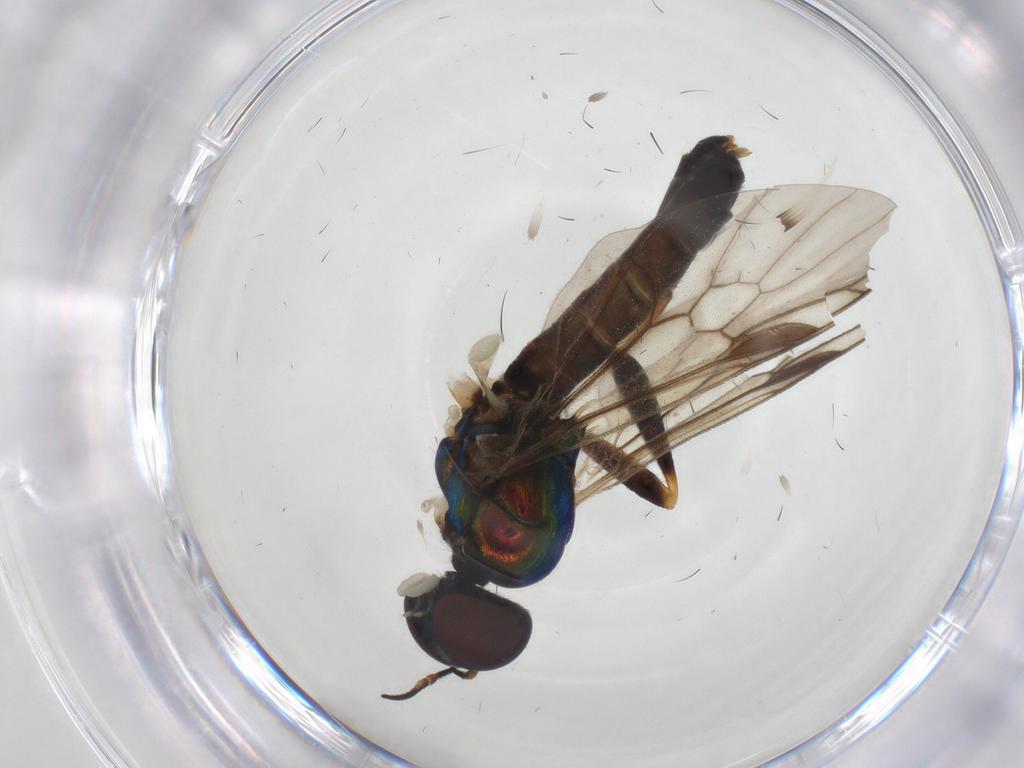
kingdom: Animalia
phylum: Arthropoda
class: Insecta
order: Diptera
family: Stratiomyidae
